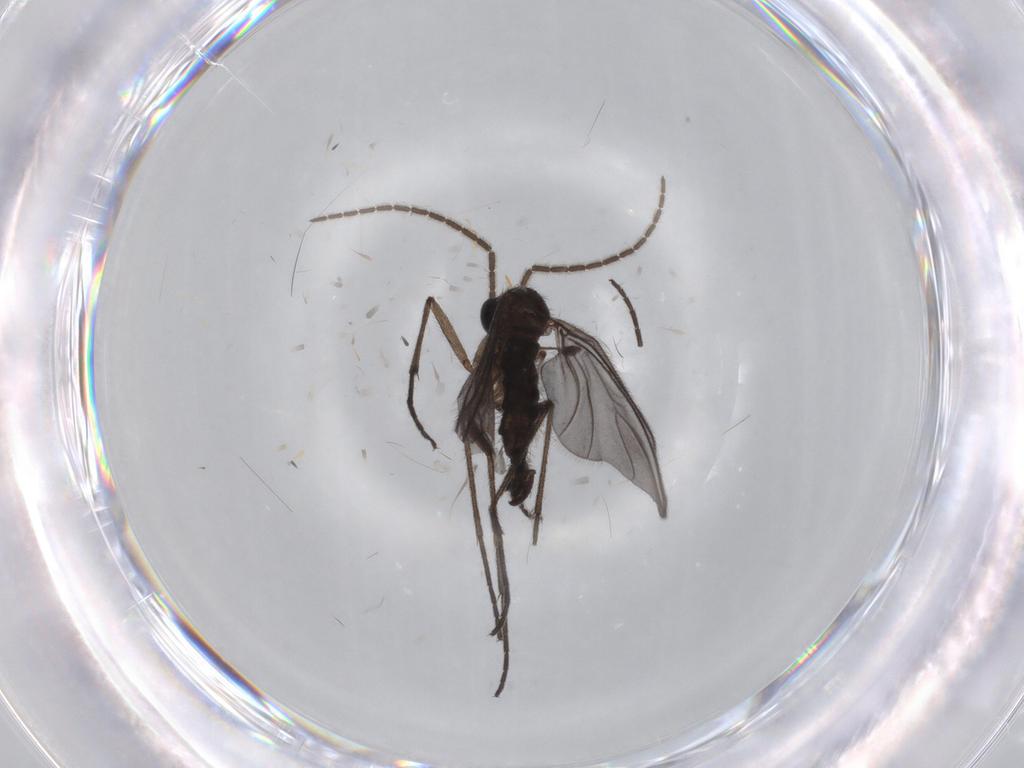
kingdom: Animalia
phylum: Arthropoda
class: Insecta
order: Diptera
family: Sciaridae
